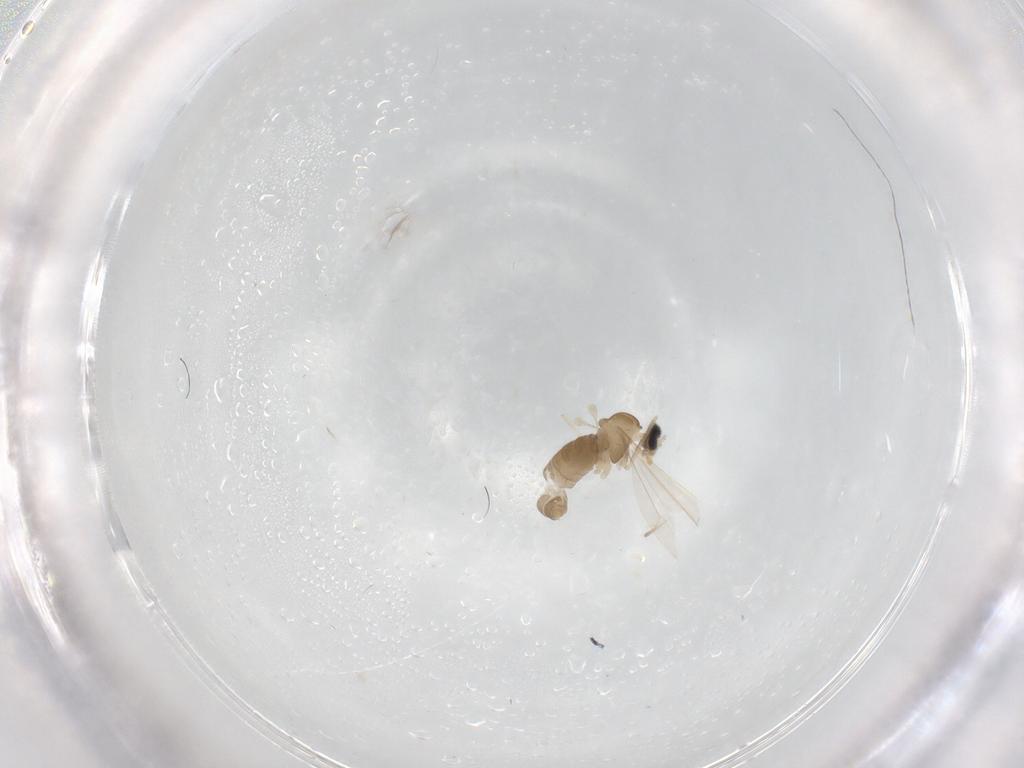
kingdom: Animalia
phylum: Arthropoda
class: Insecta
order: Diptera
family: Cecidomyiidae
